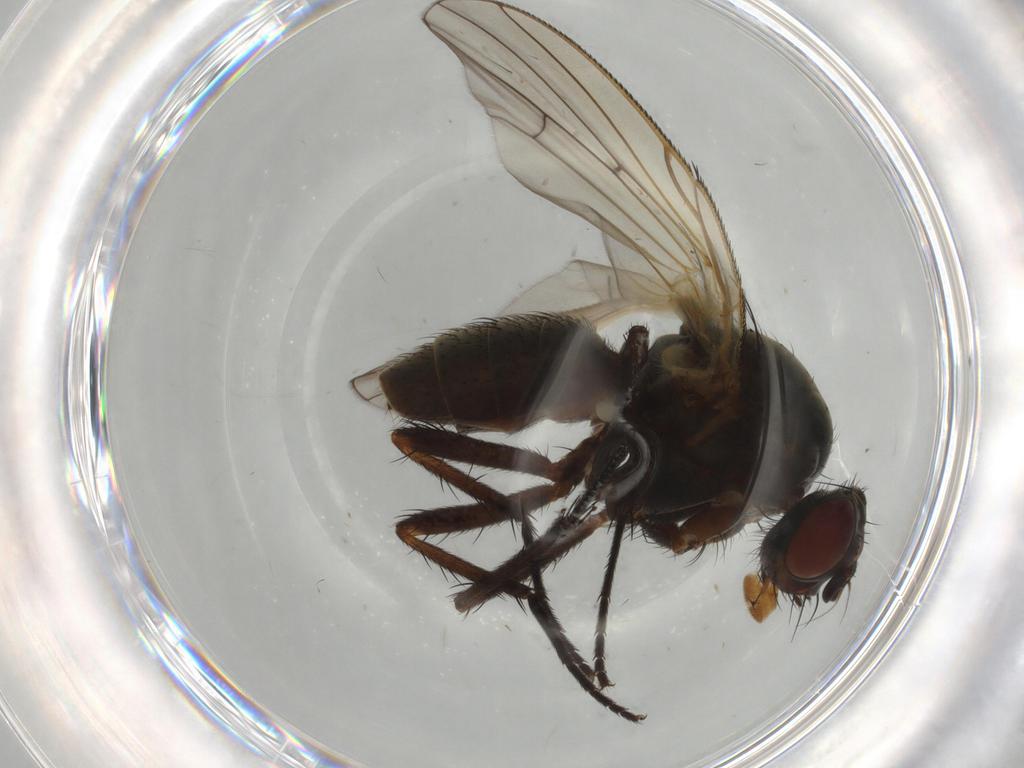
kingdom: Animalia
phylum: Arthropoda
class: Insecta
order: Diptera
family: Anthomyiidae
